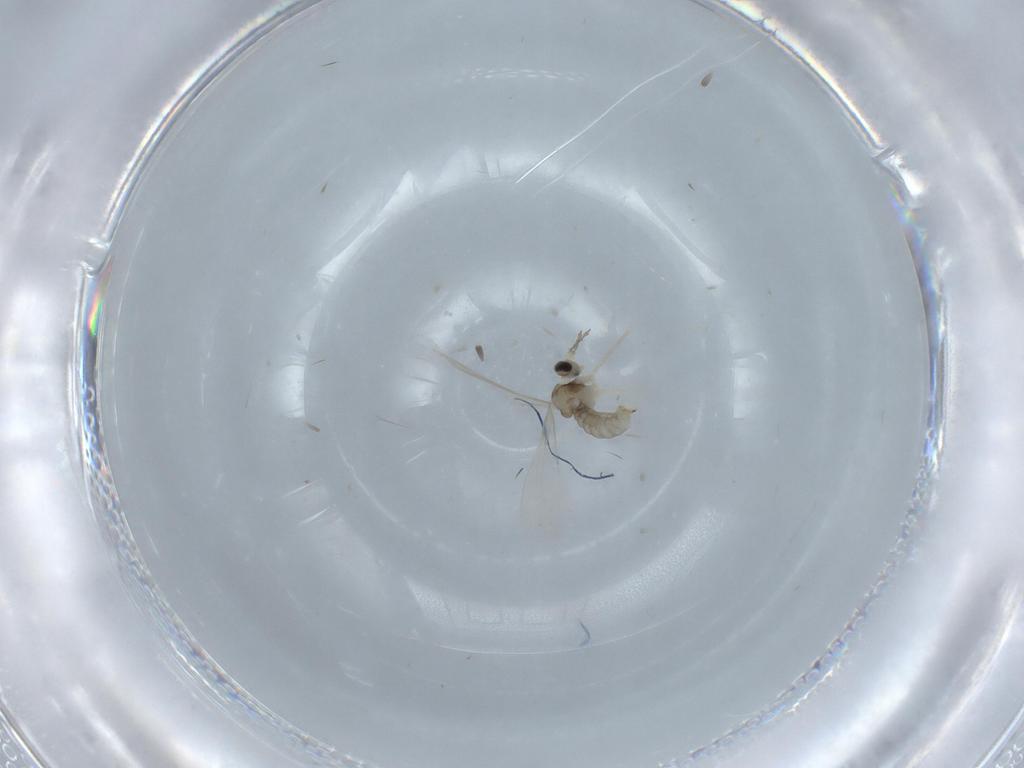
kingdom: Animalia
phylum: Arthropoda
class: Insecta
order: Diptera
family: Cecidomyiidae
